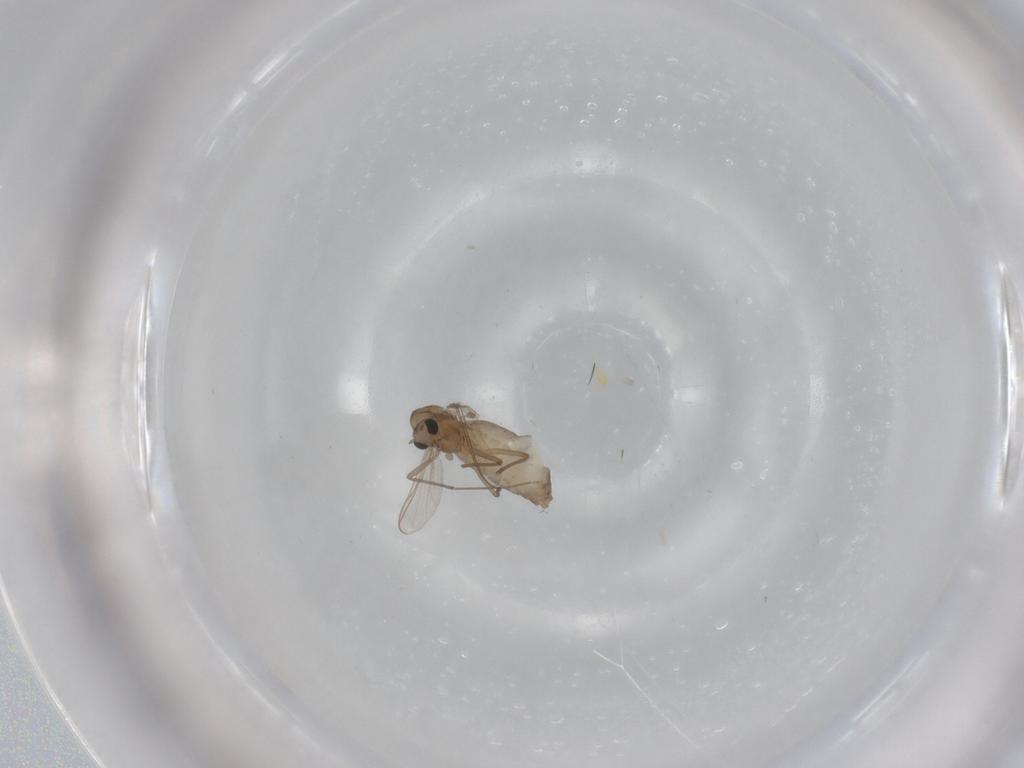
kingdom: Animalia
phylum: Arthropoda
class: Insecta
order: Diptera
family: Chironomidae
